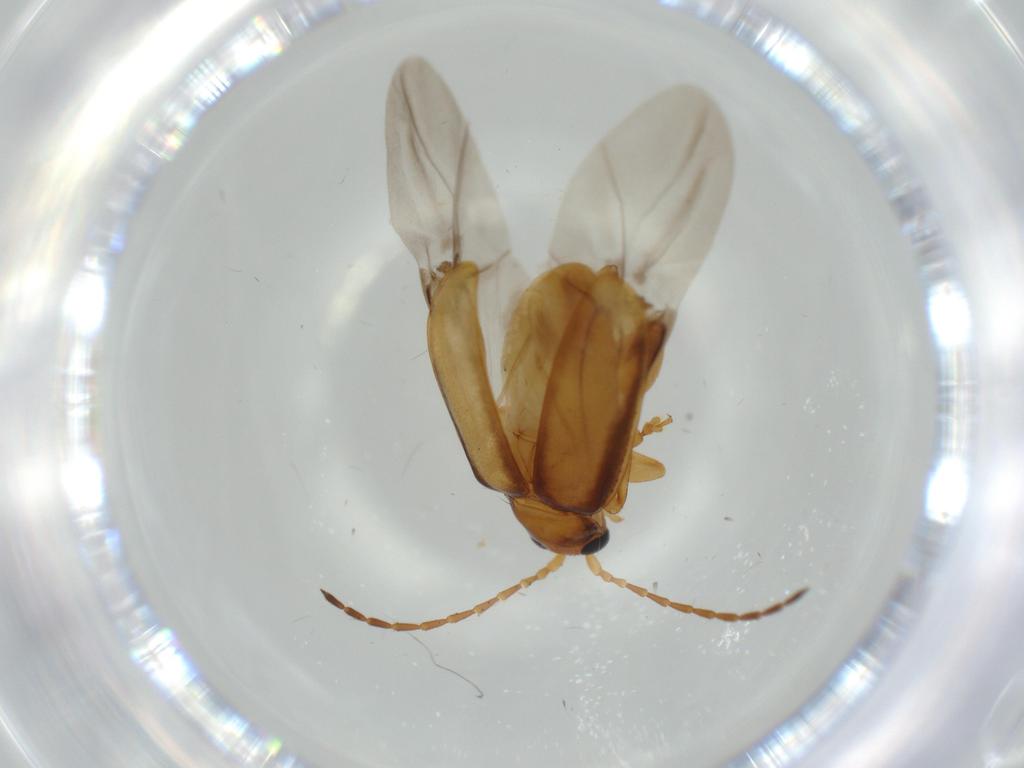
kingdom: Animalia
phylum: Arthropoda
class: Insecta
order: Coleoptera
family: Chrysomelidae
